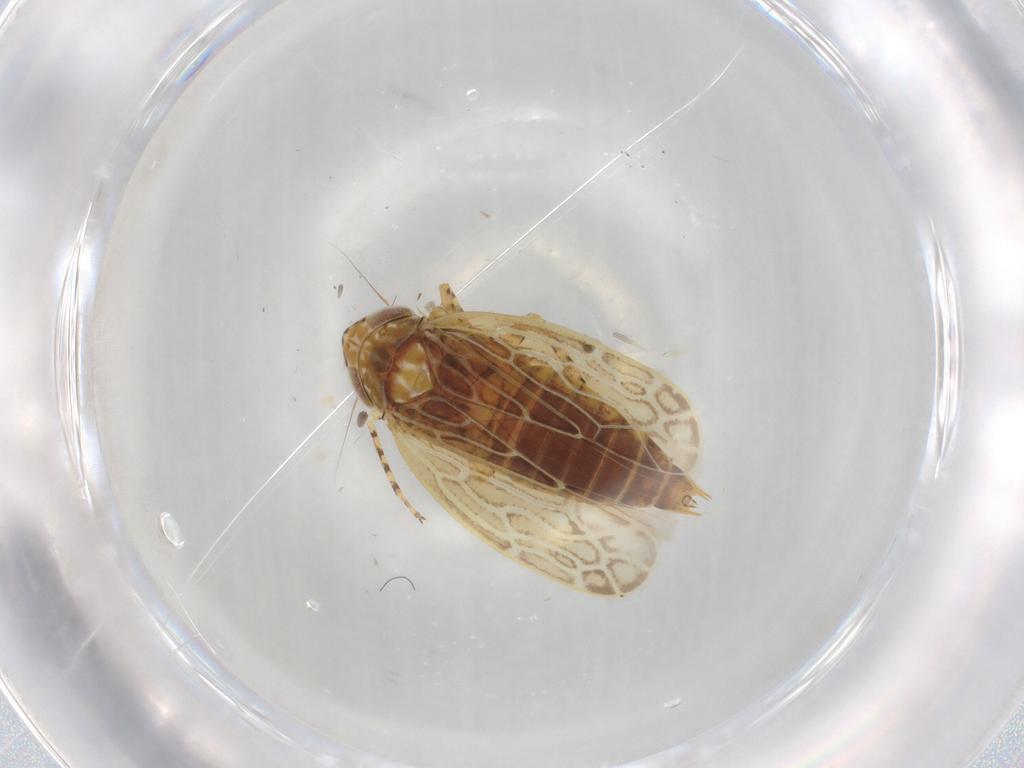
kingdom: Animalia
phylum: Arthropoda
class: Insecta
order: Hemiptera
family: Cicadellidae
